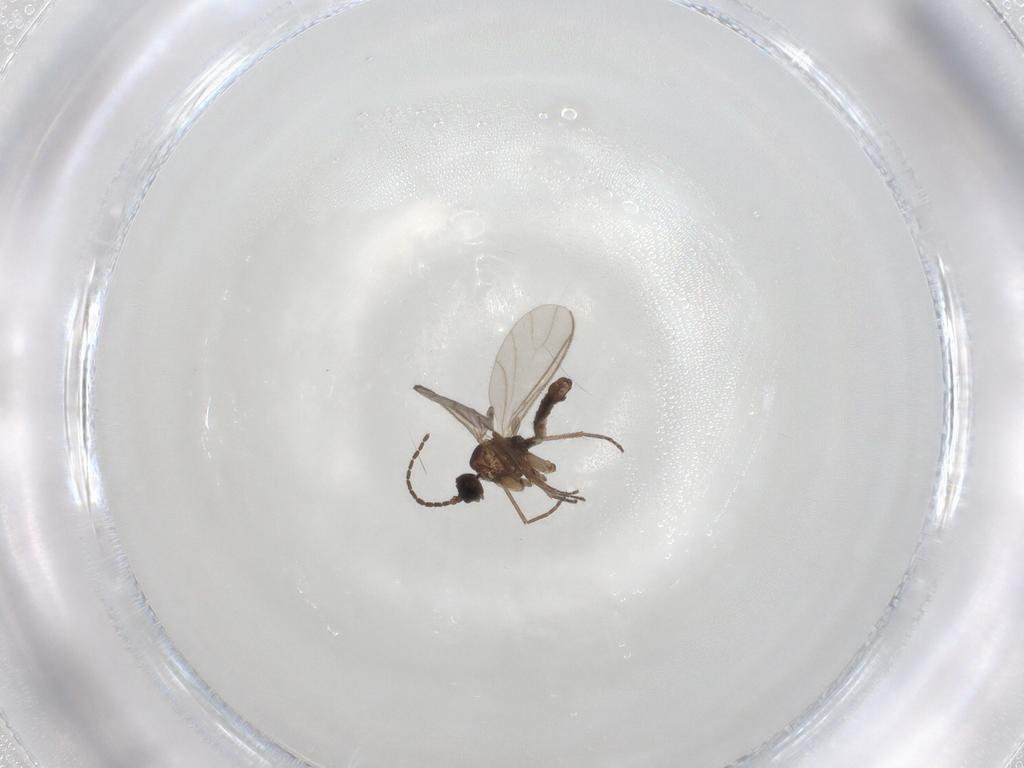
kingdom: Animalia
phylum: Arthropoda
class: Insecta
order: Diptera
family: Sciaridae
